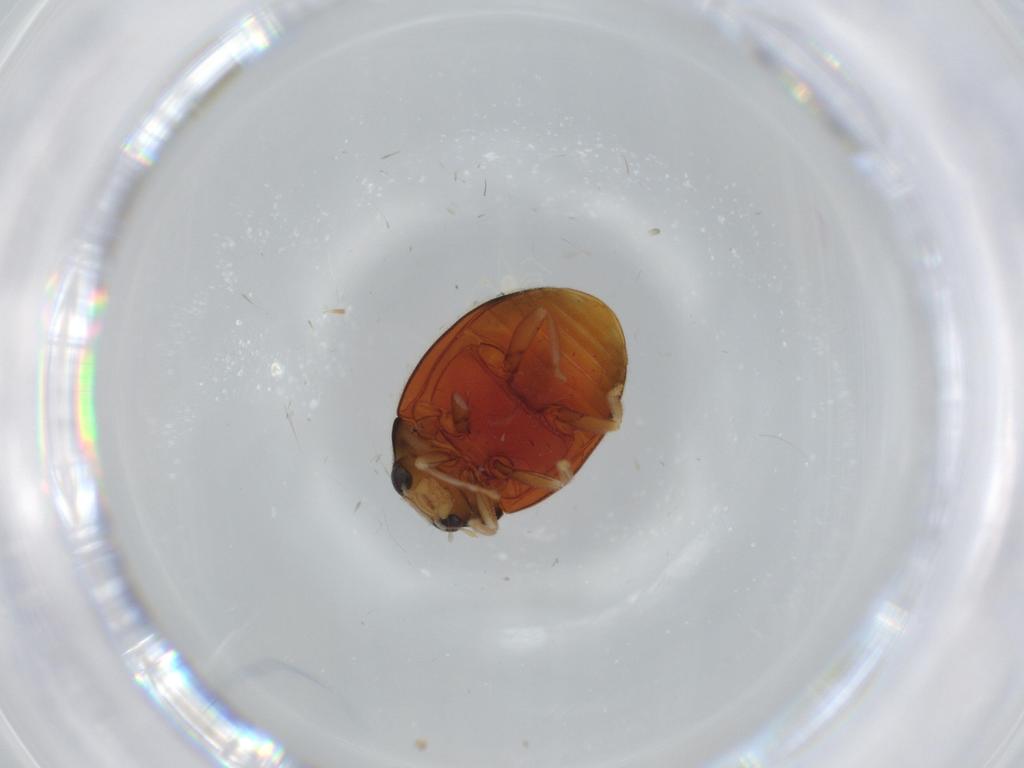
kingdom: Animalia
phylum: Arthropoda
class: Insecta
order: Coleoptera
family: Coccinellidae
